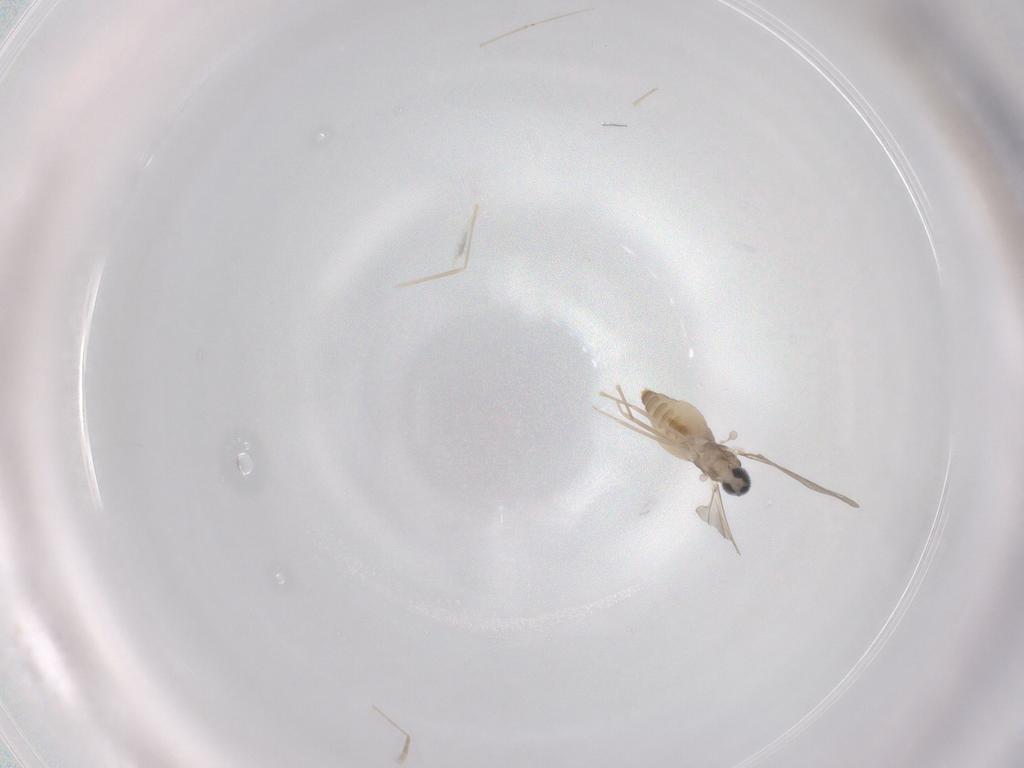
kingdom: Animalia
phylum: Arthropoda
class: Insecta
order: Diptera
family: Cecidomyiidae
